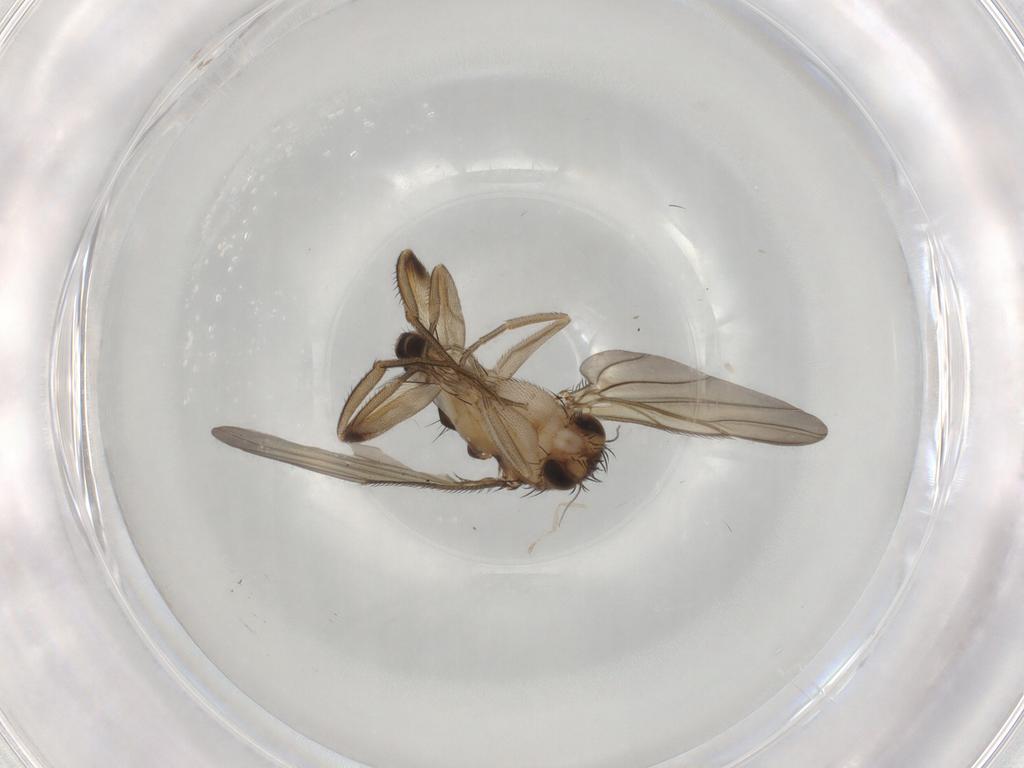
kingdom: Animalia
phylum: Arthropoda
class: Insecta
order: Diptera
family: Phoridae
